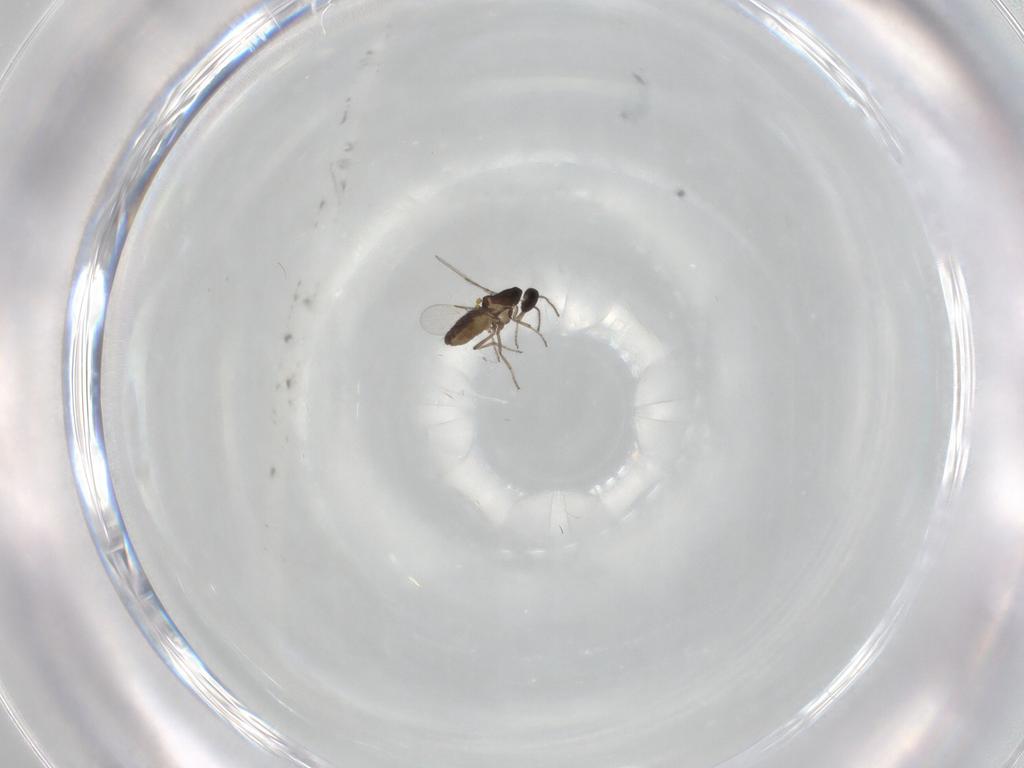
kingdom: Animalia
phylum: Arthropoda
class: Insecta
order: Diptera
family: Ceratopogonidae
